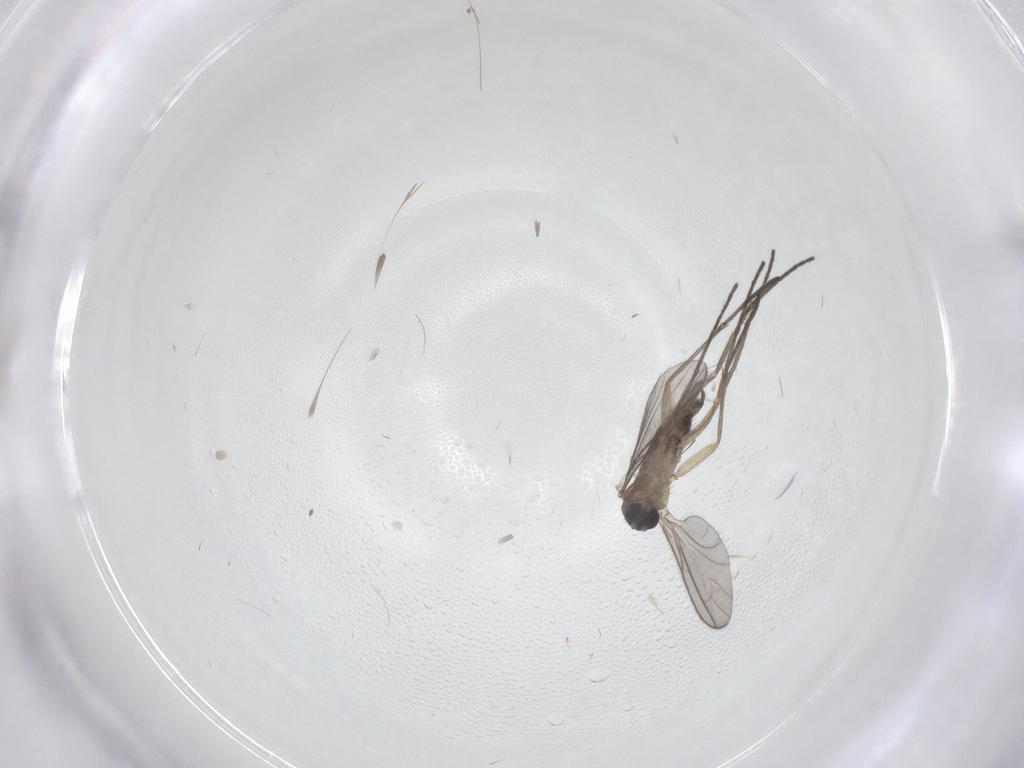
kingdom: Animalia
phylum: Arthropoda
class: Insecta
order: Diptera
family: Sciaridae
